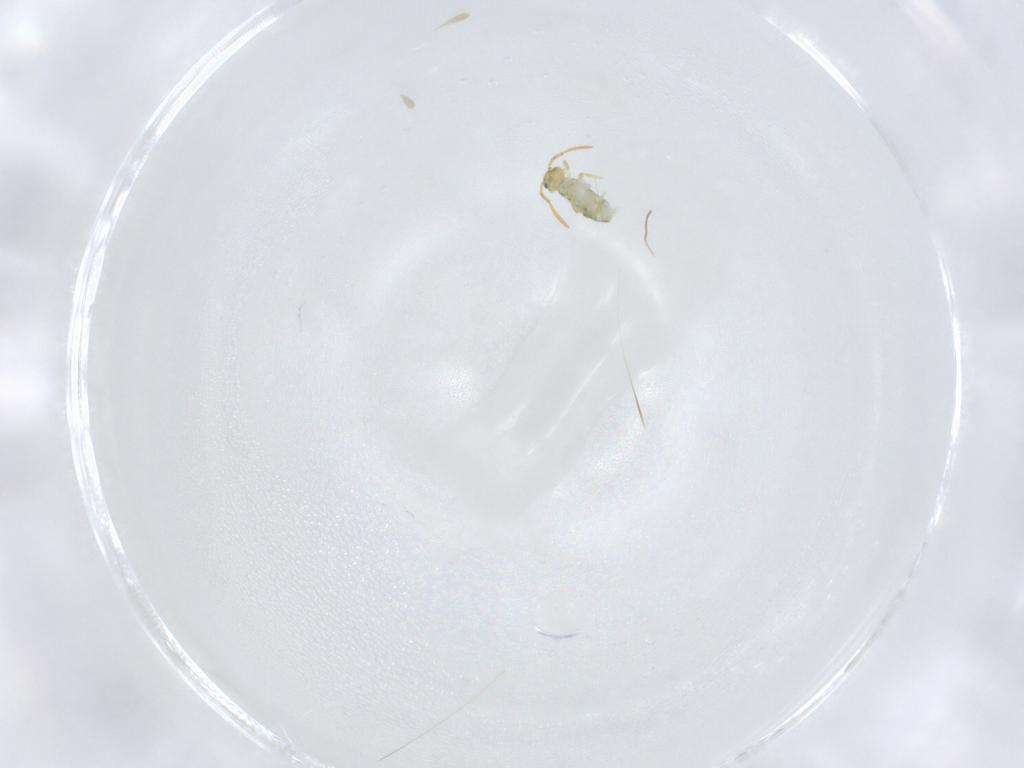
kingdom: Animalia
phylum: Arthropoda
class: Collembola
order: Symphypleona
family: Katiannidae
